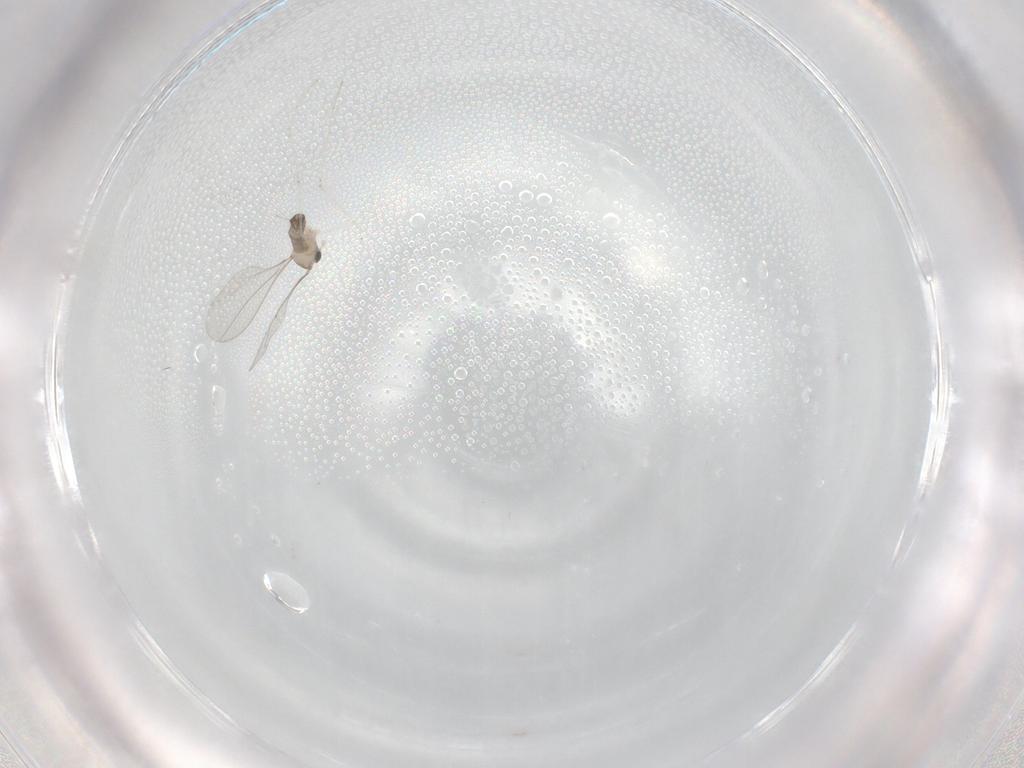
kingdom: Animalia
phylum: Arthropoda
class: Insecta
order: Diptera
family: Cecidomyiidae
